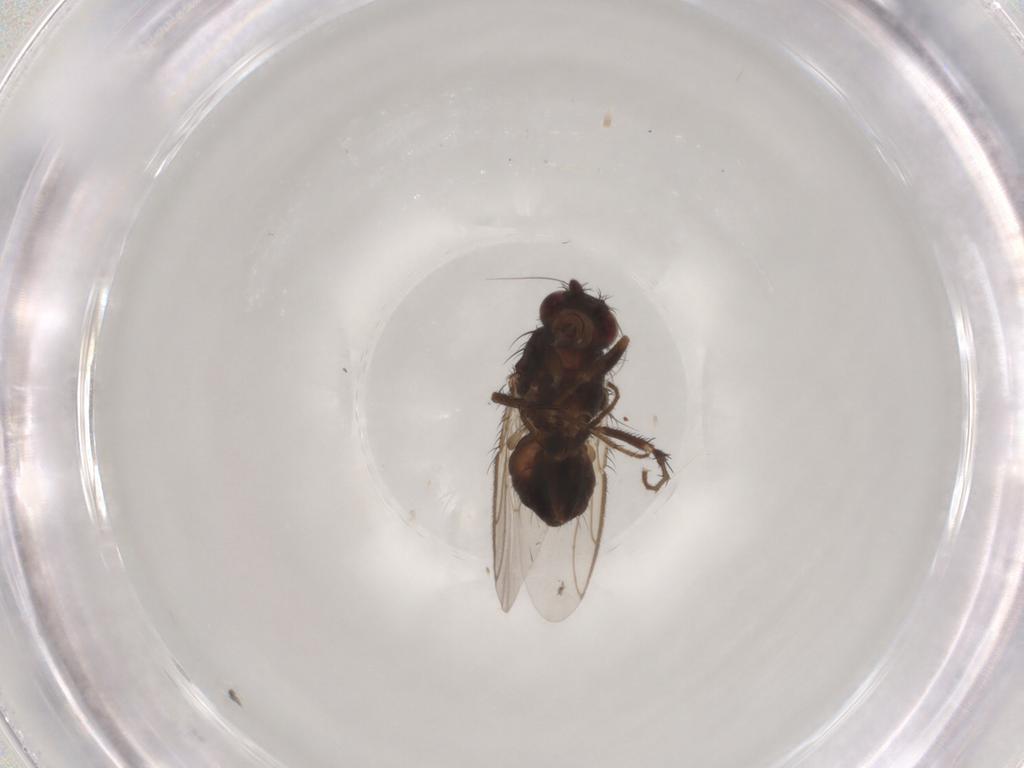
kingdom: Animalia
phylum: Arthropoda
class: Insecta
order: Diptera
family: Sphaeroceridae
